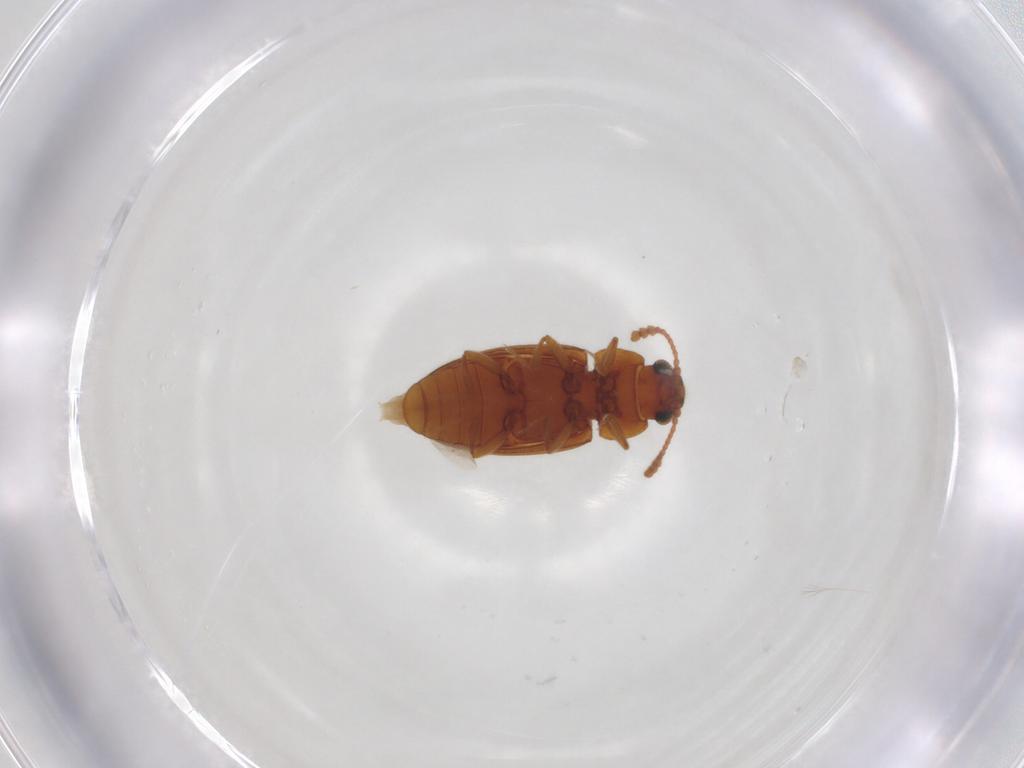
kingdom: Animalia
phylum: Arthropoda
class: Insecta
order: Coleoptera
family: Erotylidae
